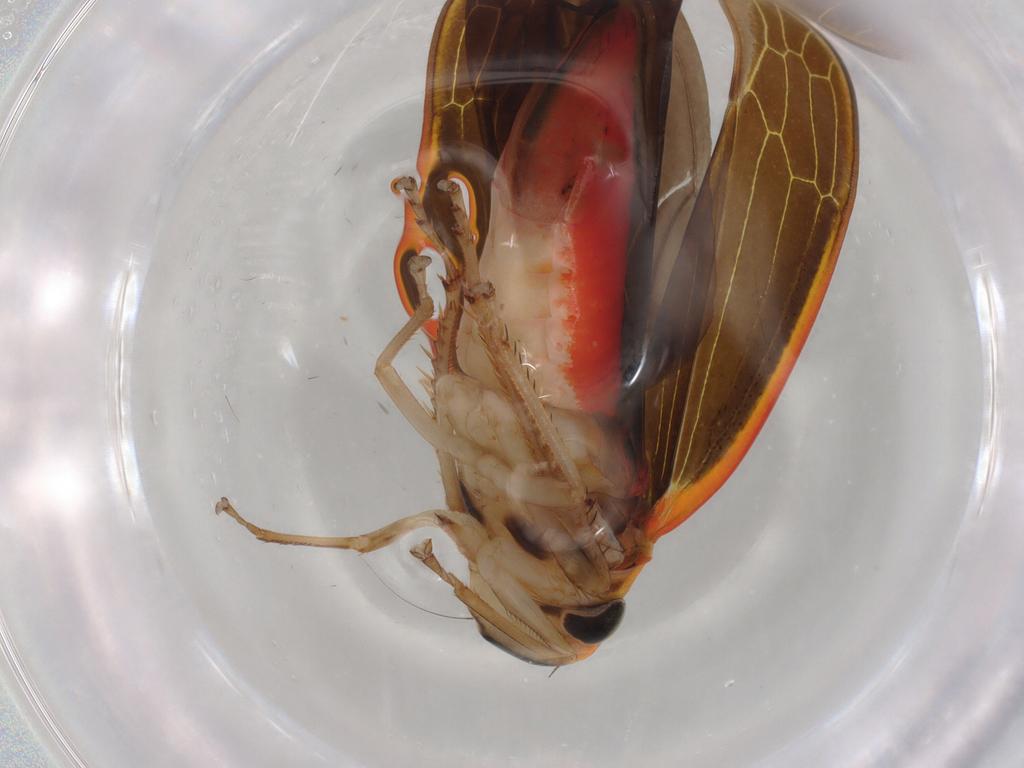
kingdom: Animalia
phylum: Arthropoda
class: Insecta
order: Hemiptera
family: Cicadellidae
